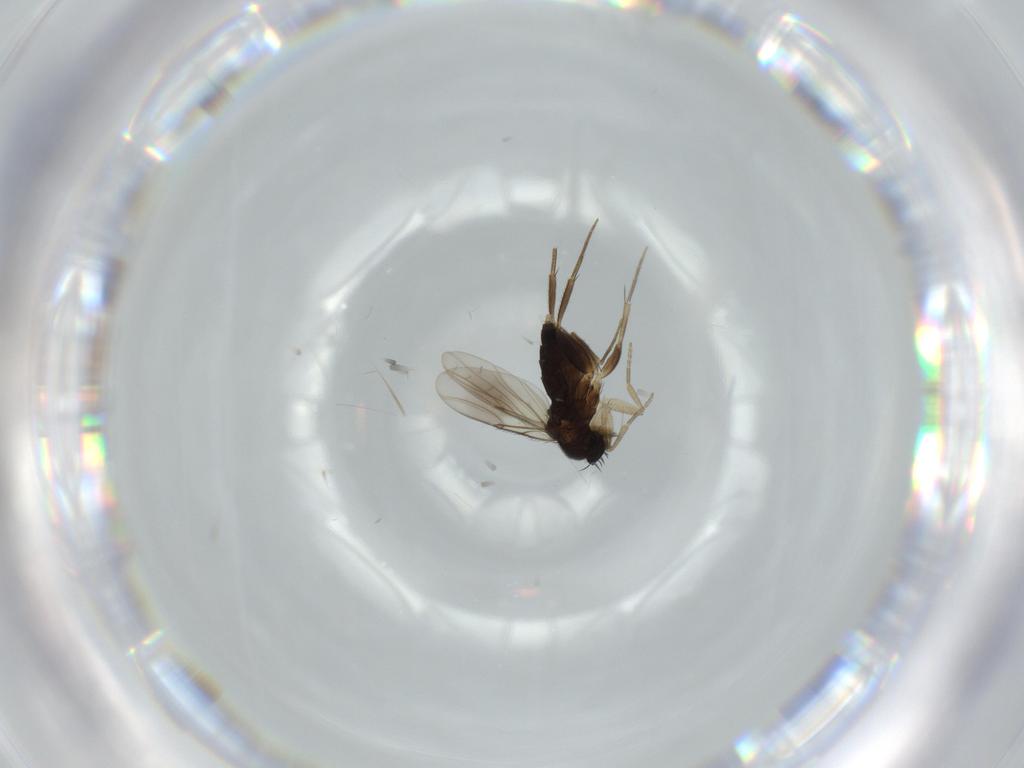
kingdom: Animalia
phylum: Arthropoda
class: Insecta
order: Diptera
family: Phoridae
